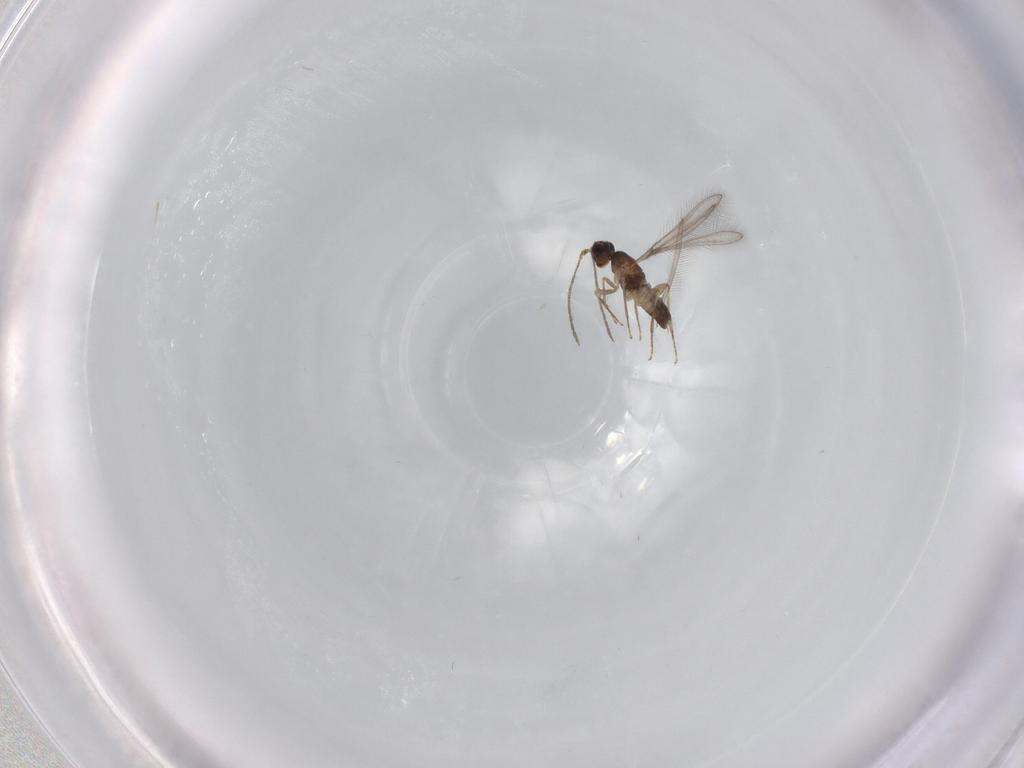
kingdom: Animalia
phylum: Arthropoda
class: Insecta
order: Hymenoptera
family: Mymaridae
